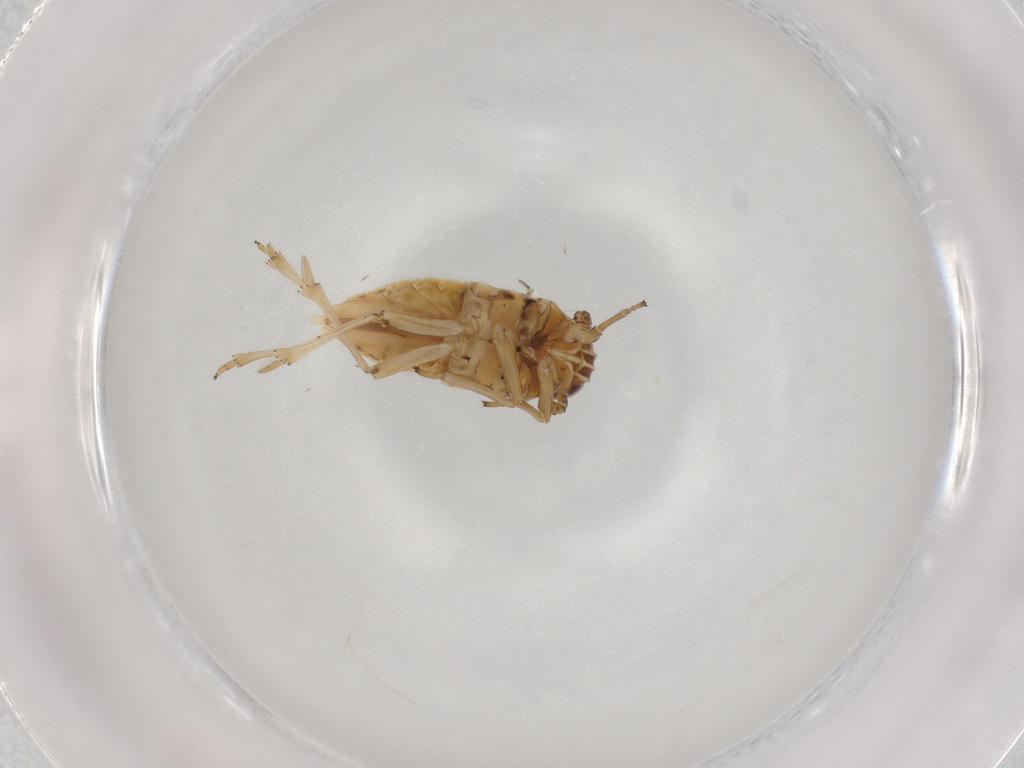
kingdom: Animalia
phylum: Arthropoda
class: Insecta
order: Hemiptera
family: Delphacidae
